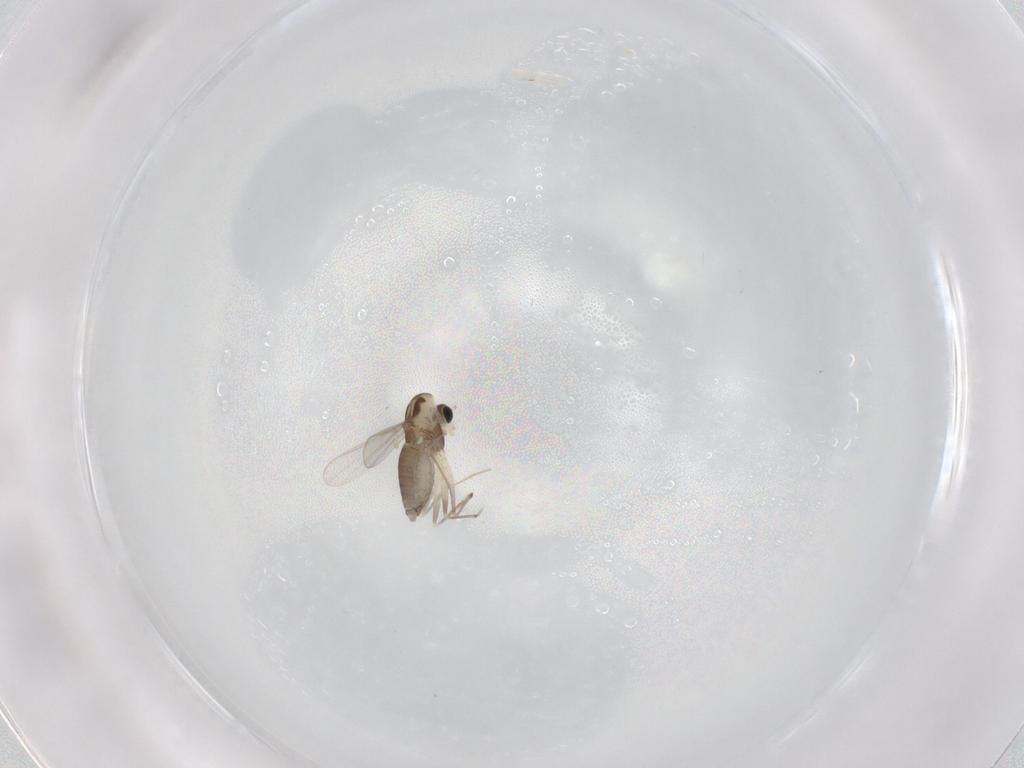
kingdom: Animalia
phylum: Arthropoda
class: Insecta
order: Diptera
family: Chironomidae
